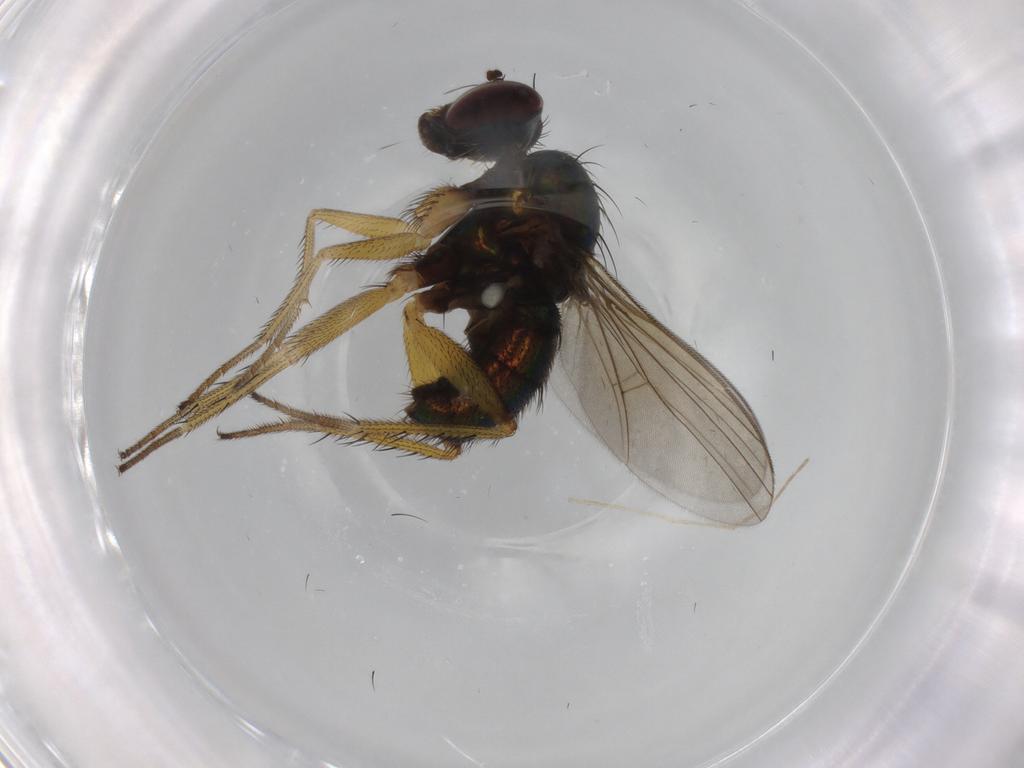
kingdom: Animalia
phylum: Arthropoda
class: Insecta
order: Diptera
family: Dolichopodidae
